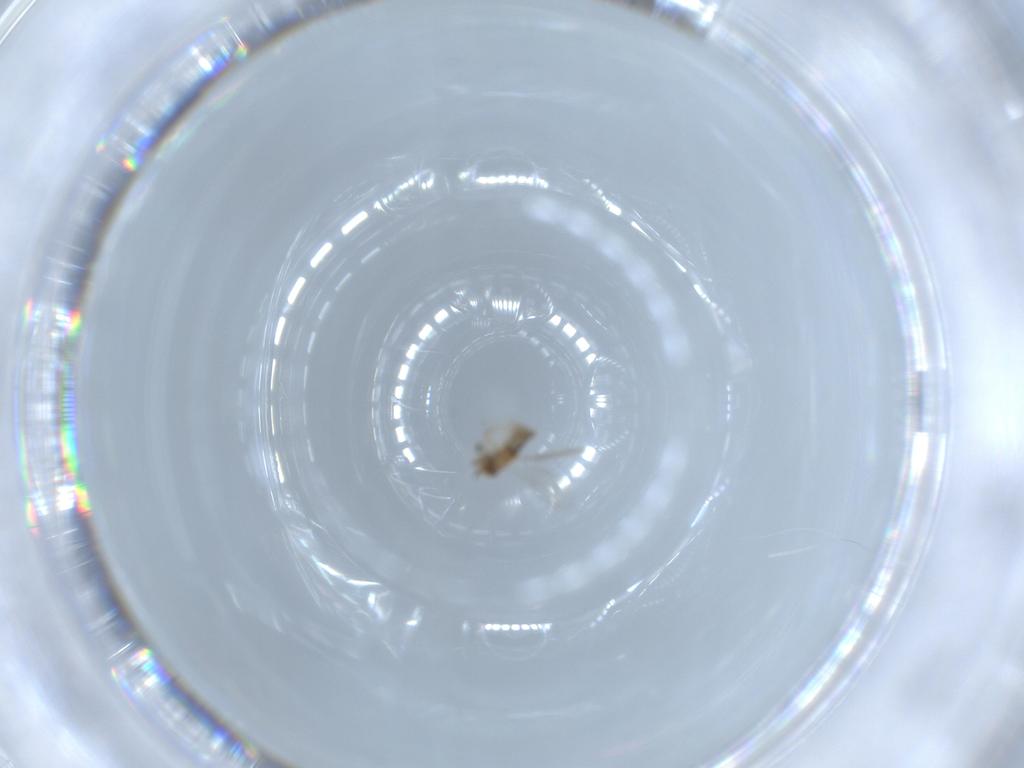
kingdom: Animalia
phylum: Arthropoda
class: Insecta
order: Hymenoptera
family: Encyrtidae
